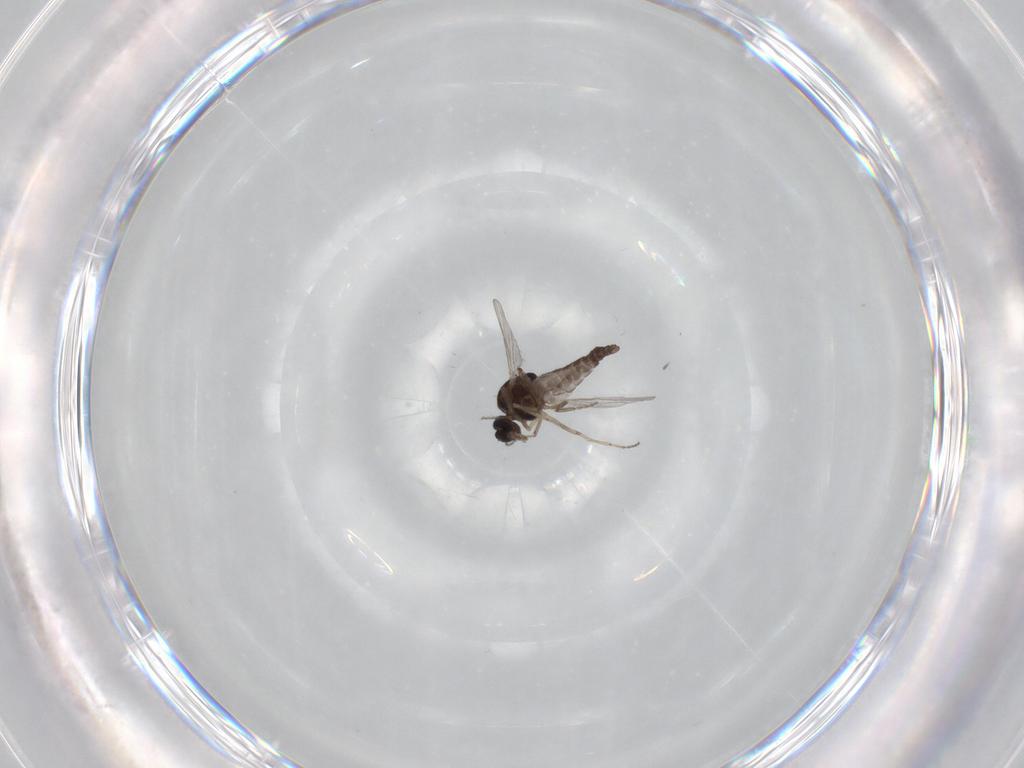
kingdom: Animalia
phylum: Arthropoda
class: Insecta
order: Diptera
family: Ceratopogonidae
